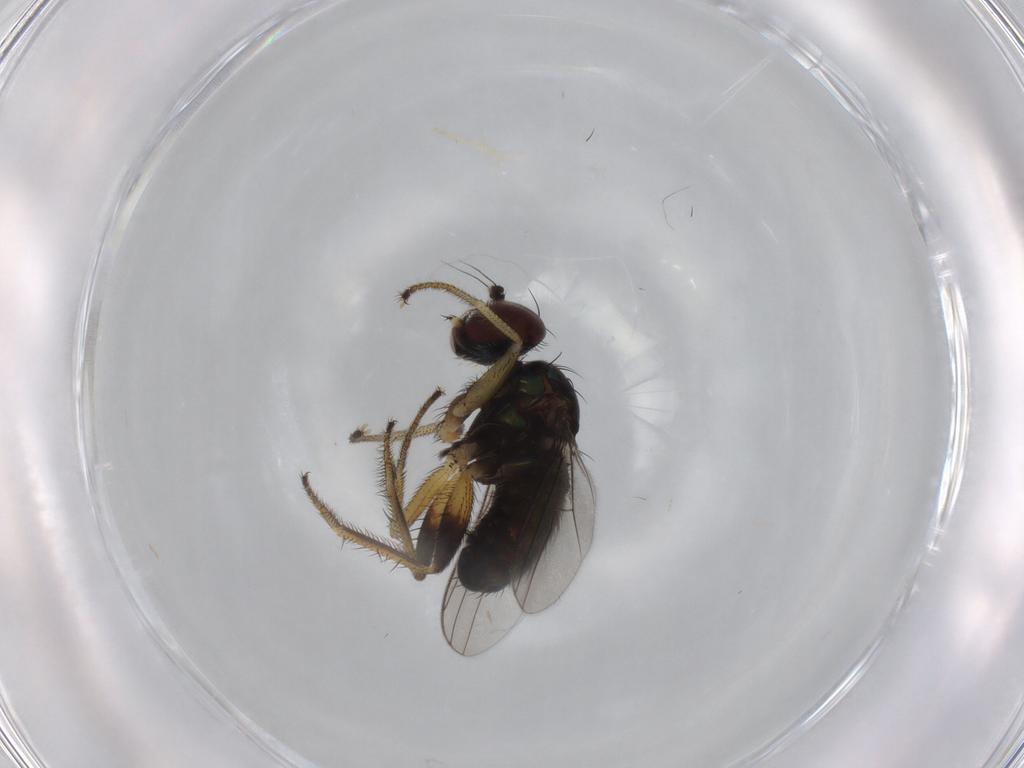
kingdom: Animalia
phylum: Arthropoda
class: Insecta
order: Diptera
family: Dolichopodidae
